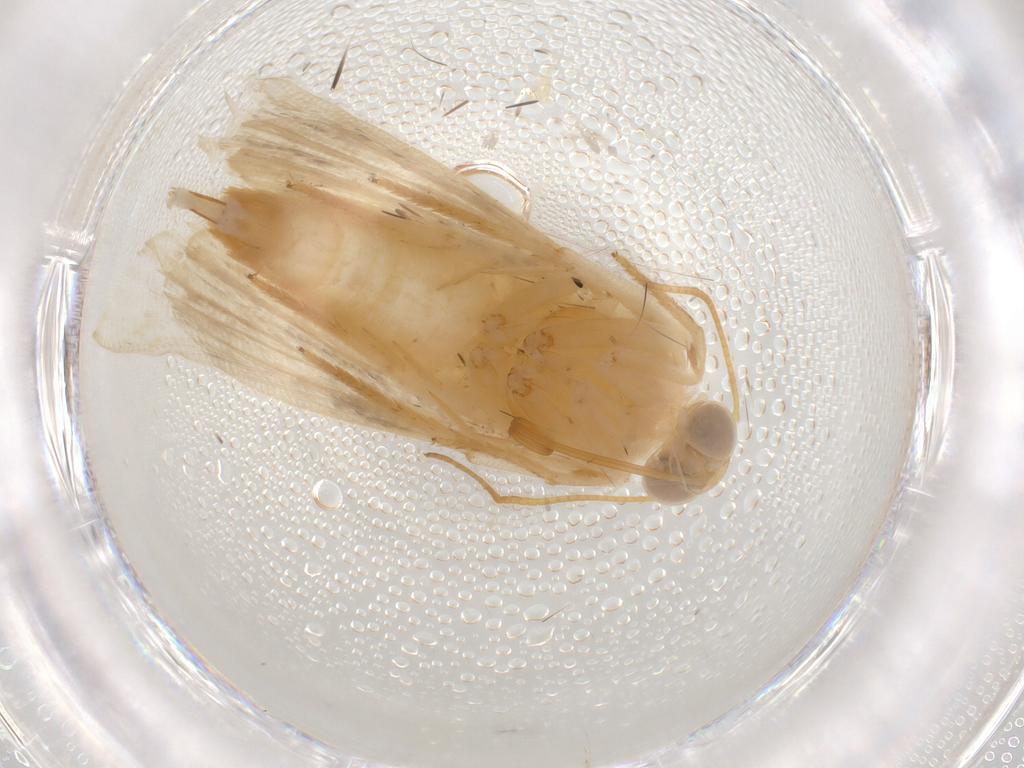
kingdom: Animalia
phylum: Arthropoda
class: Insecta
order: Lepidoptera
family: Noctuidae
